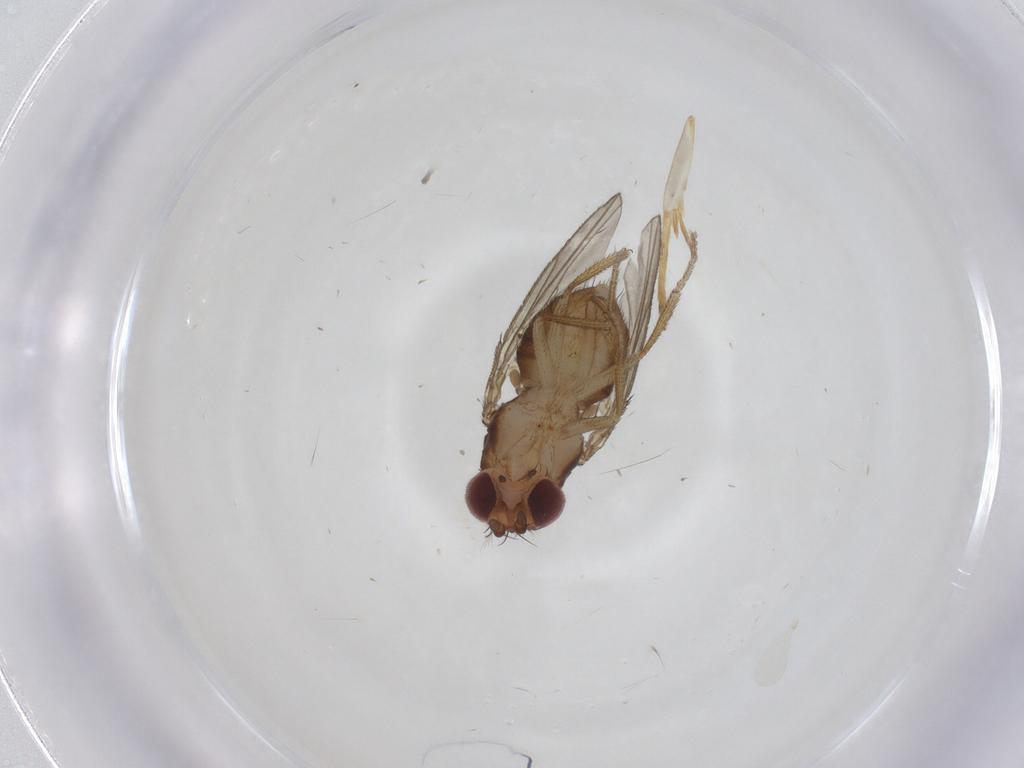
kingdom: Animalia
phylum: Arthropoda
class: Insecta
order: Diptera
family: Drosophilidae
